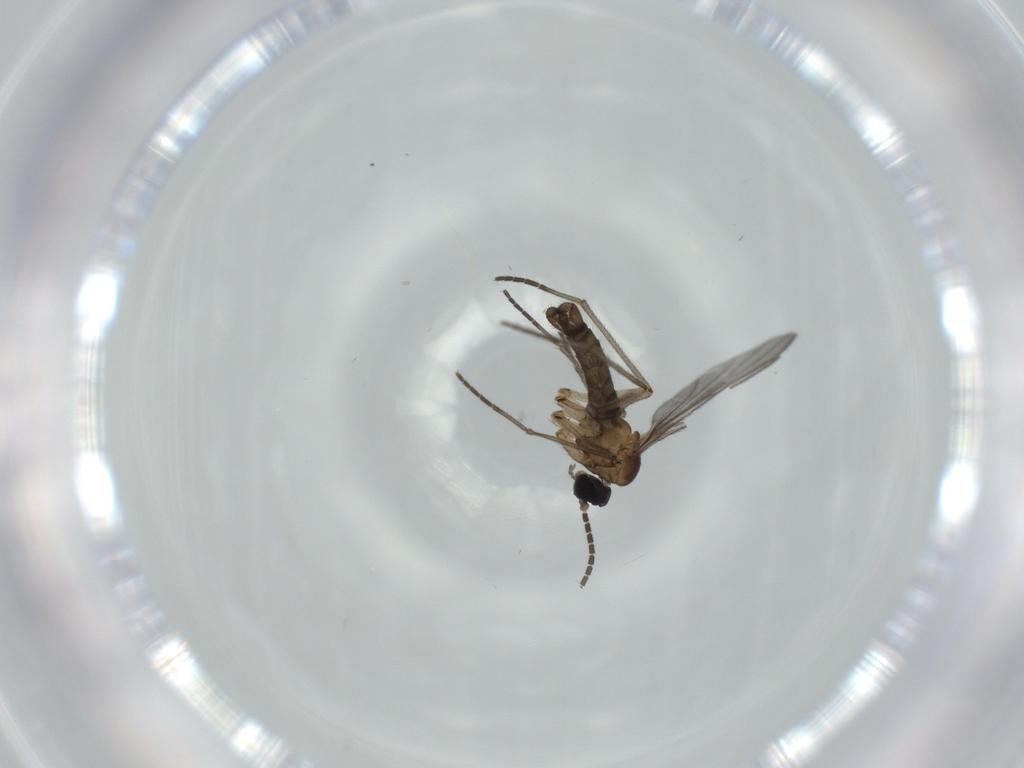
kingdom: Animalia
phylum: Arthropoda
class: Insecta
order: Diptera
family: Sciaridae
